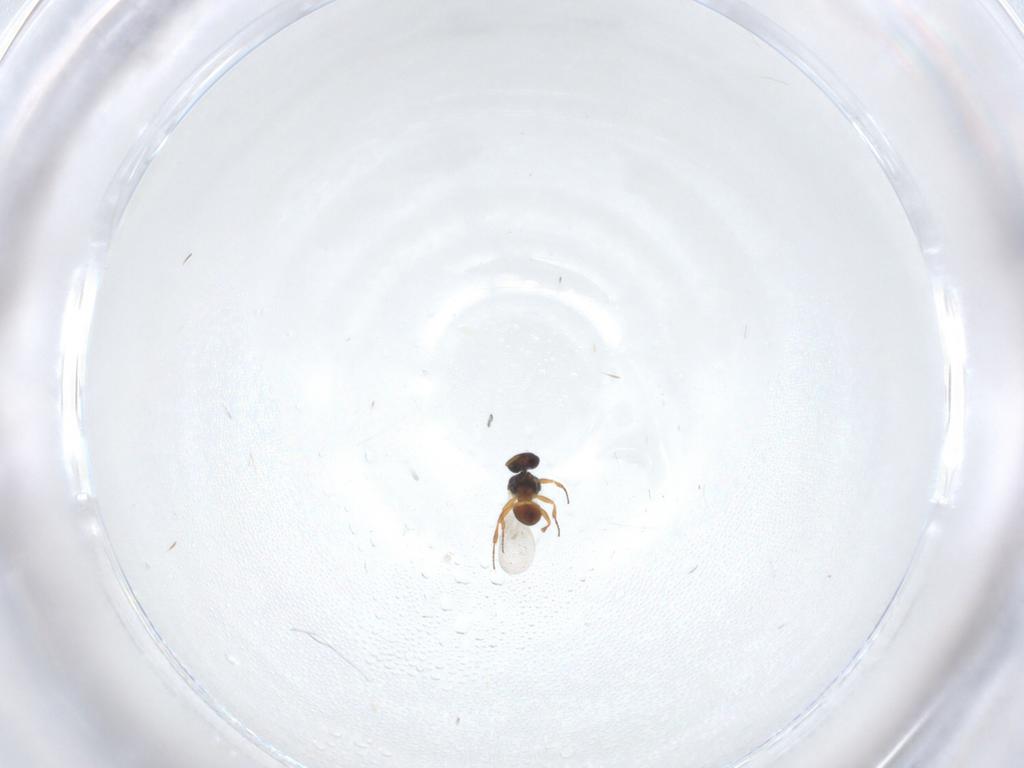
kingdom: Animalia
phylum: Arthropoda
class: Insecta
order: Hymenoptera
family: Platygastridae
